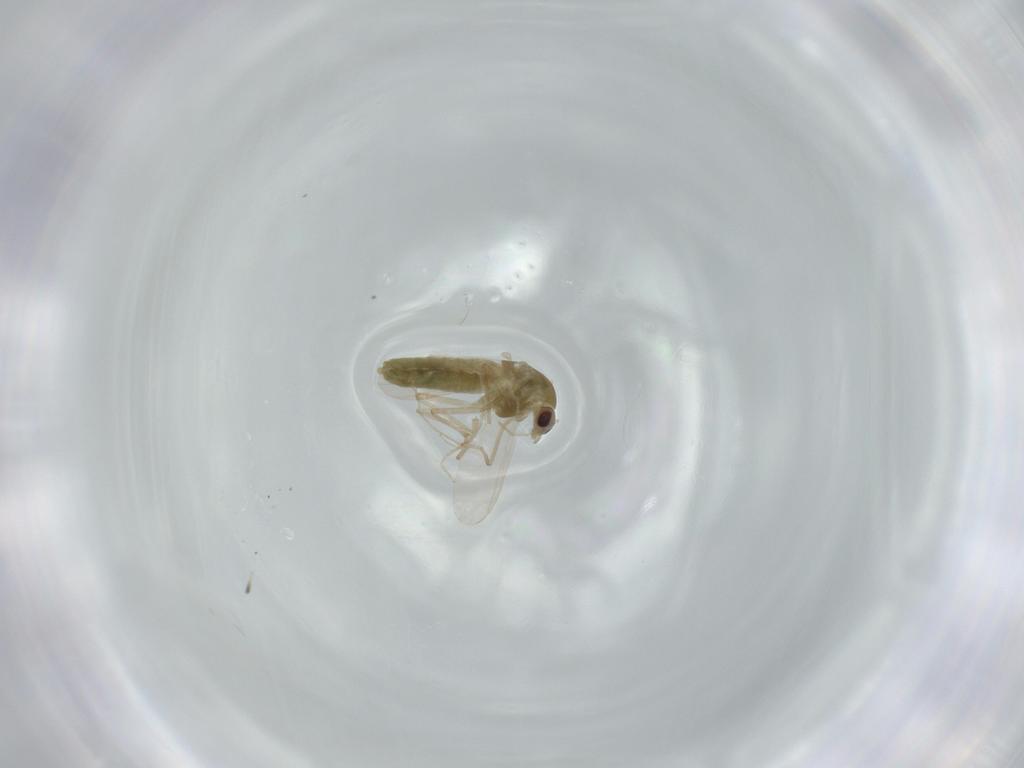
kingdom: Animalia
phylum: Arthropoda
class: Insecta
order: Diptera
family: Sciaridae
